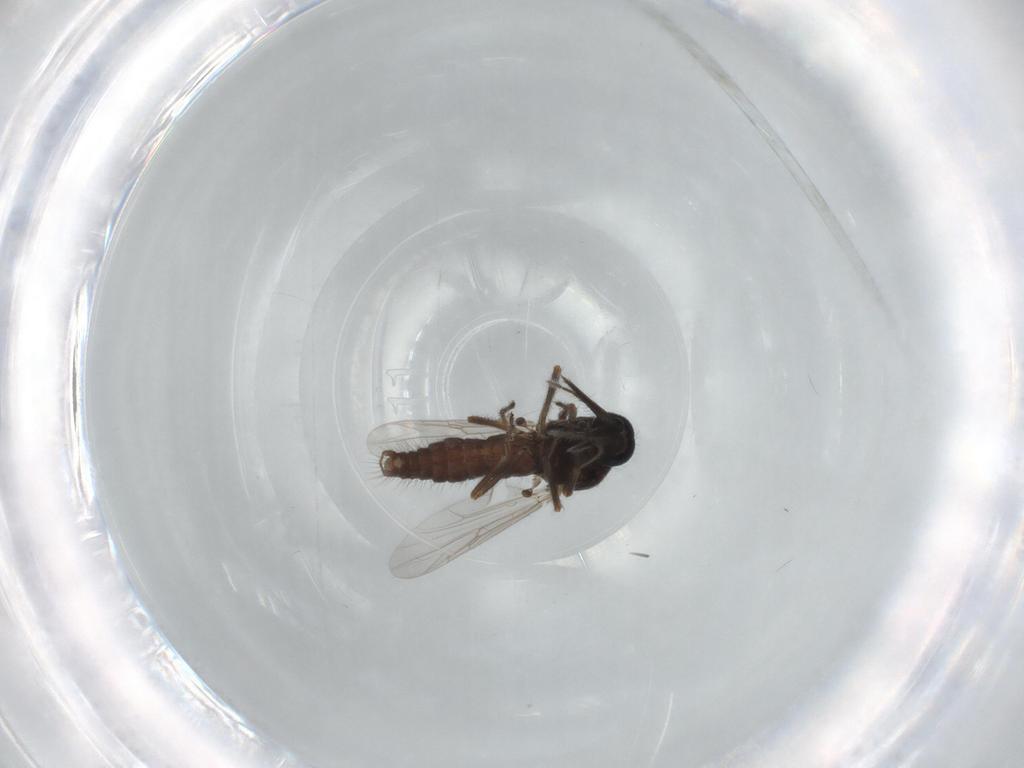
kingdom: Animalia
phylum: Arthropoda
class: Insecta
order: Diptera
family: Ceratopogonidae
